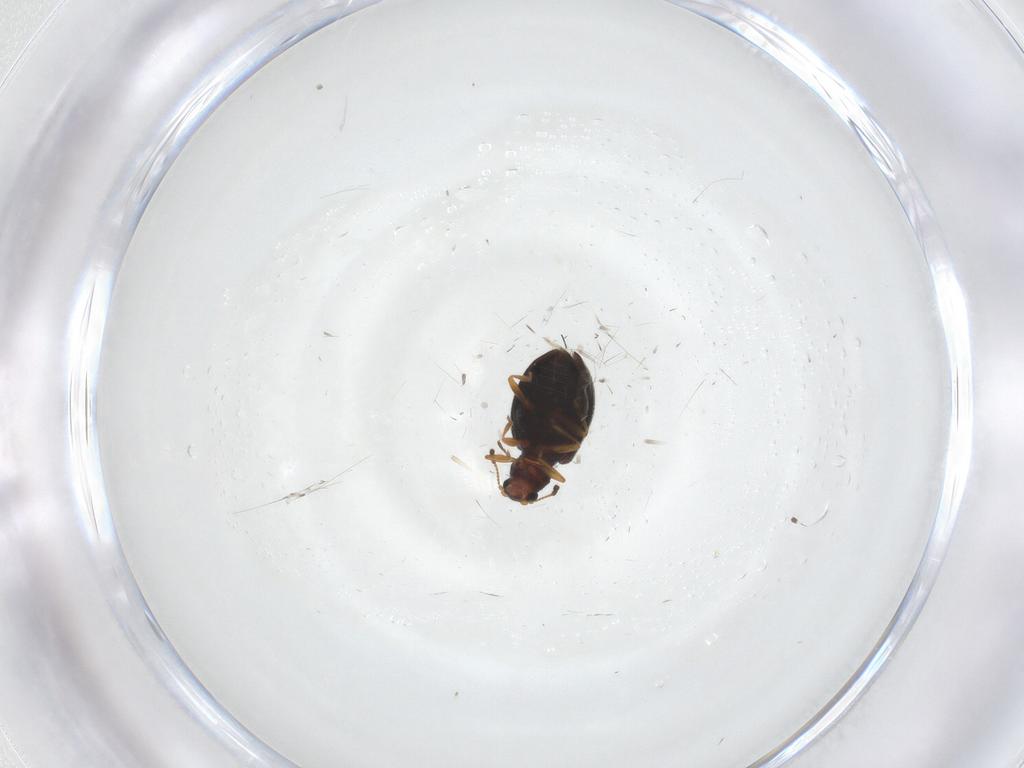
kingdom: Animalia
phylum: Arthropoda
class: Insecta
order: Coleoptera
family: Latridiidae
